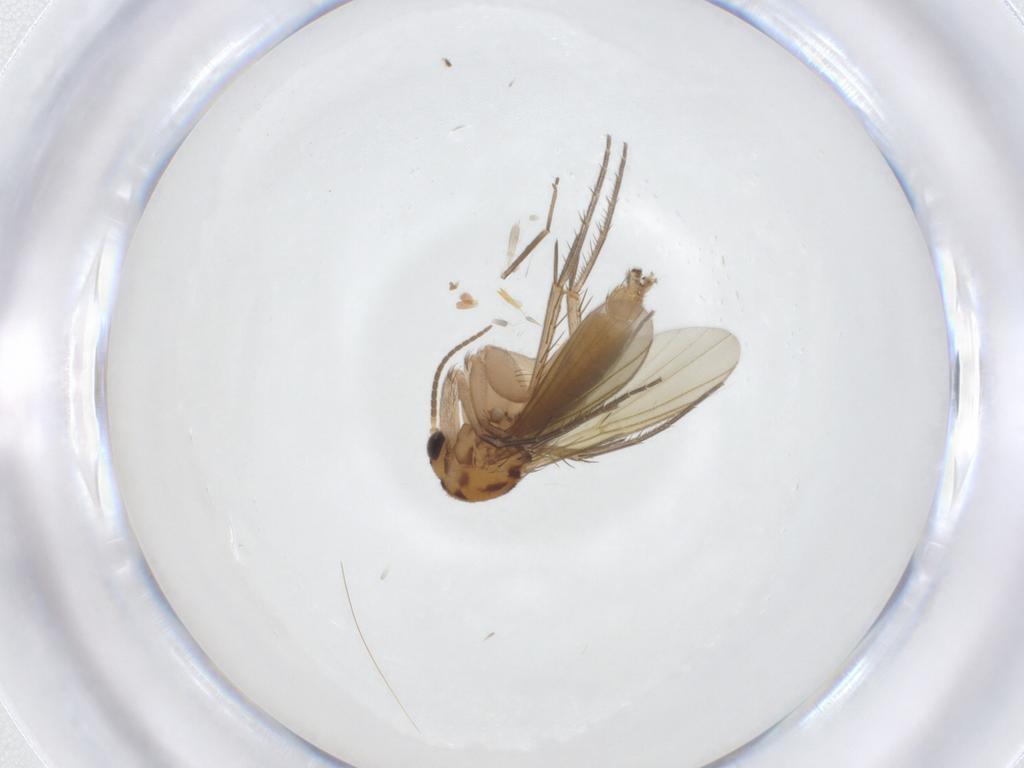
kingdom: Animalia
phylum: Arthropoda
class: Insecta
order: Diptera
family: Mycetophilidae
